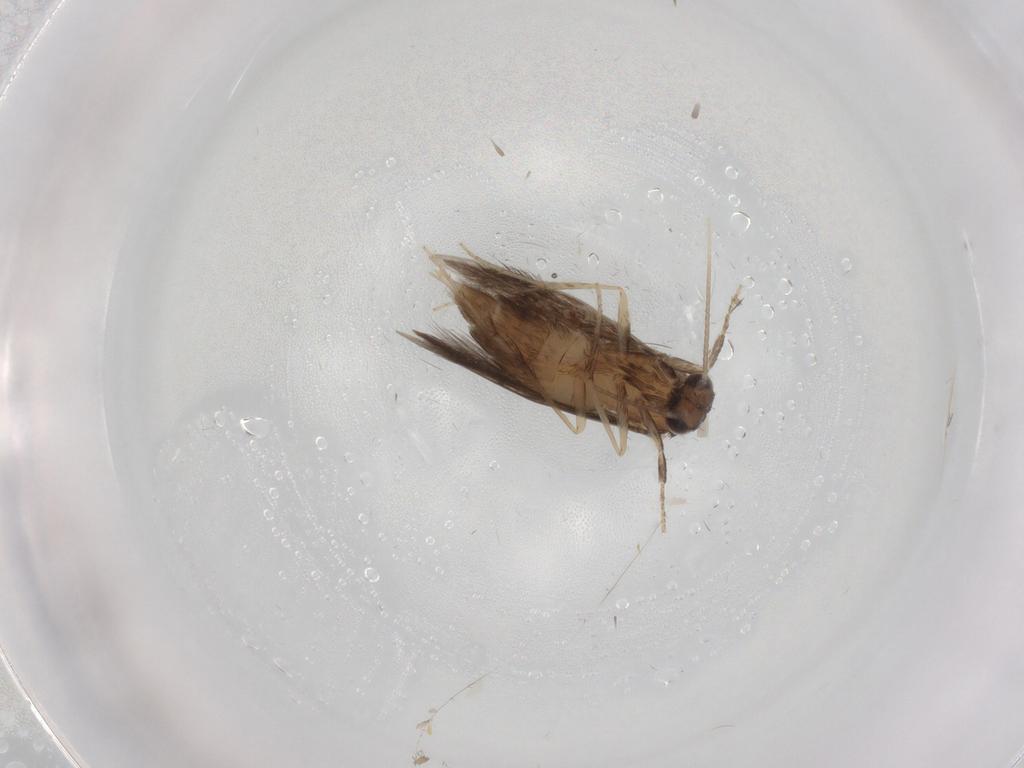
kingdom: Animalia
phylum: Arthropoda
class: Insecta
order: Trichoptera
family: Hydroptilidae
